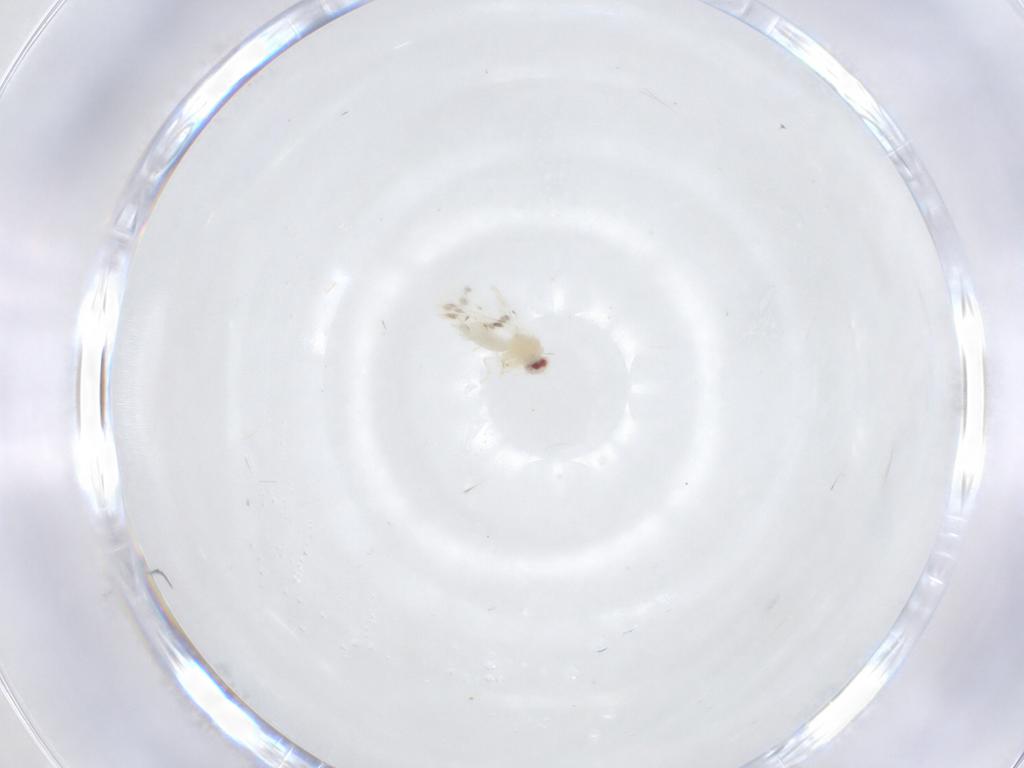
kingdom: Animalia
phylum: Arthropoda
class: Insecta
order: Hemiptera
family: Aleyrodidae
